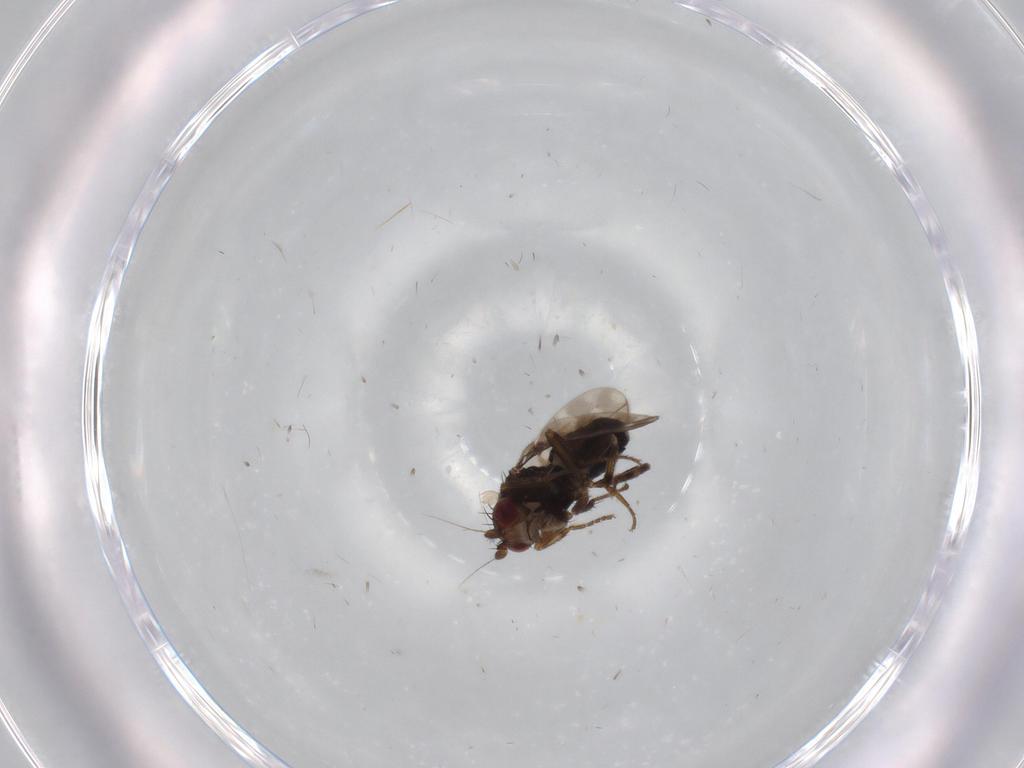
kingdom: Animalia
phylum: Arthropoda
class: Insecta
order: Diptera
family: Sphaeroceridae
